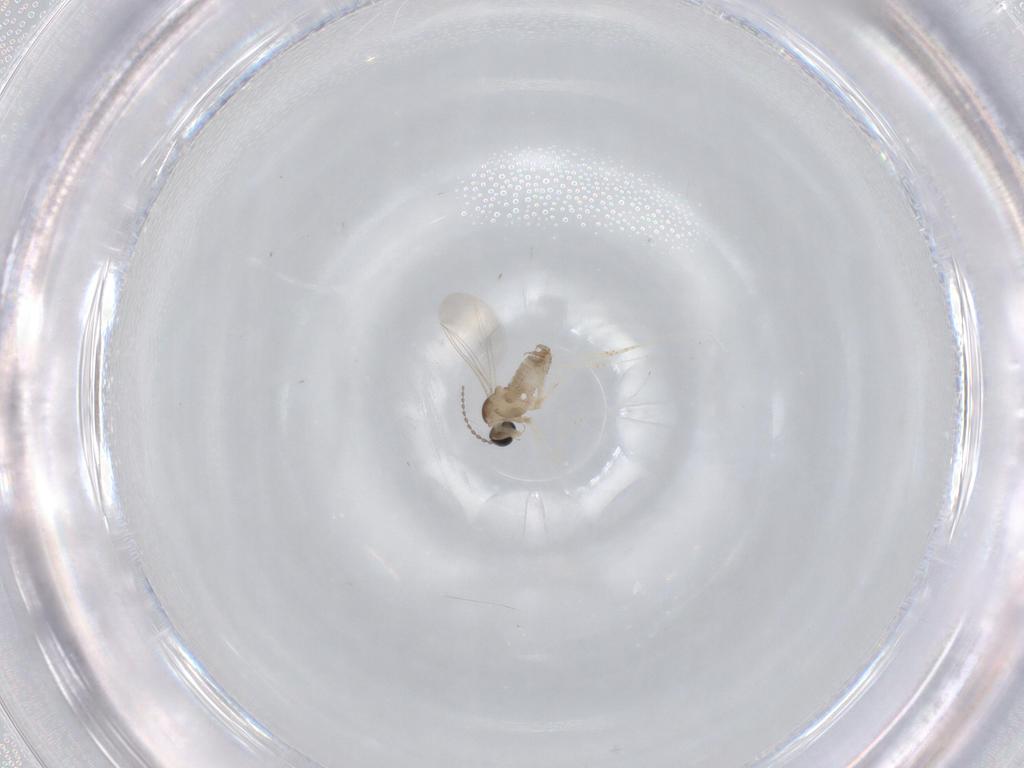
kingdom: Animalia
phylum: Arthropoda
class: Insecta
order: Diptera
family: Cecidomyiidae
